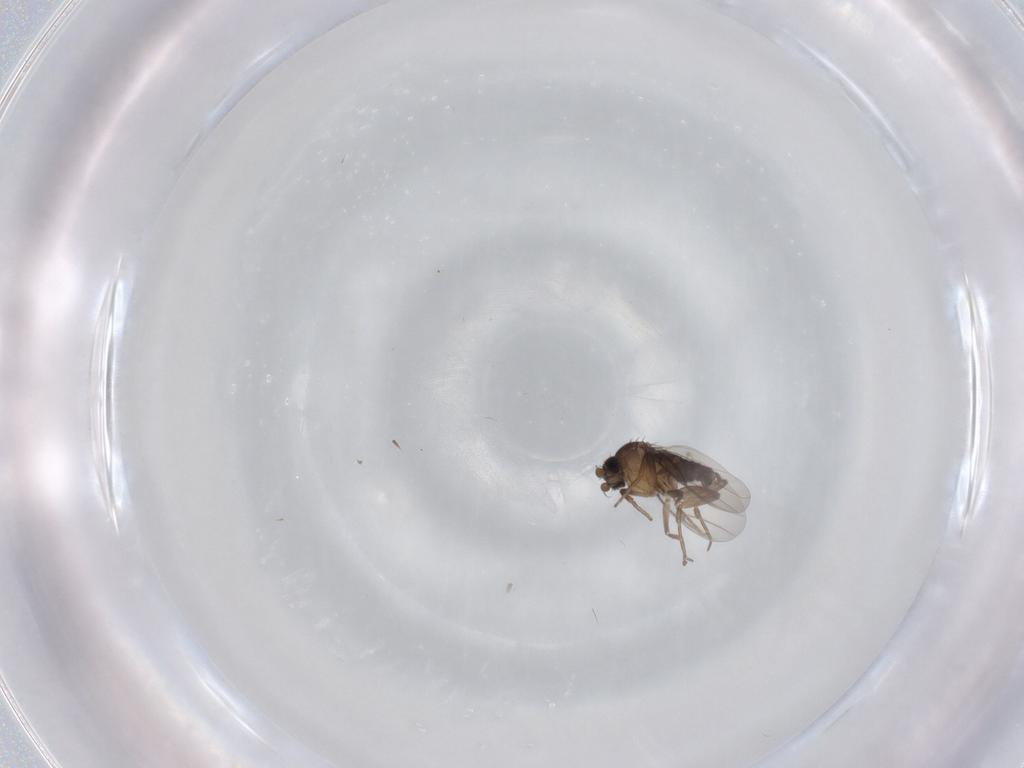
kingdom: Animalia
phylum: Arthropoda
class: Insecta
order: Diptera
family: Phoridae
